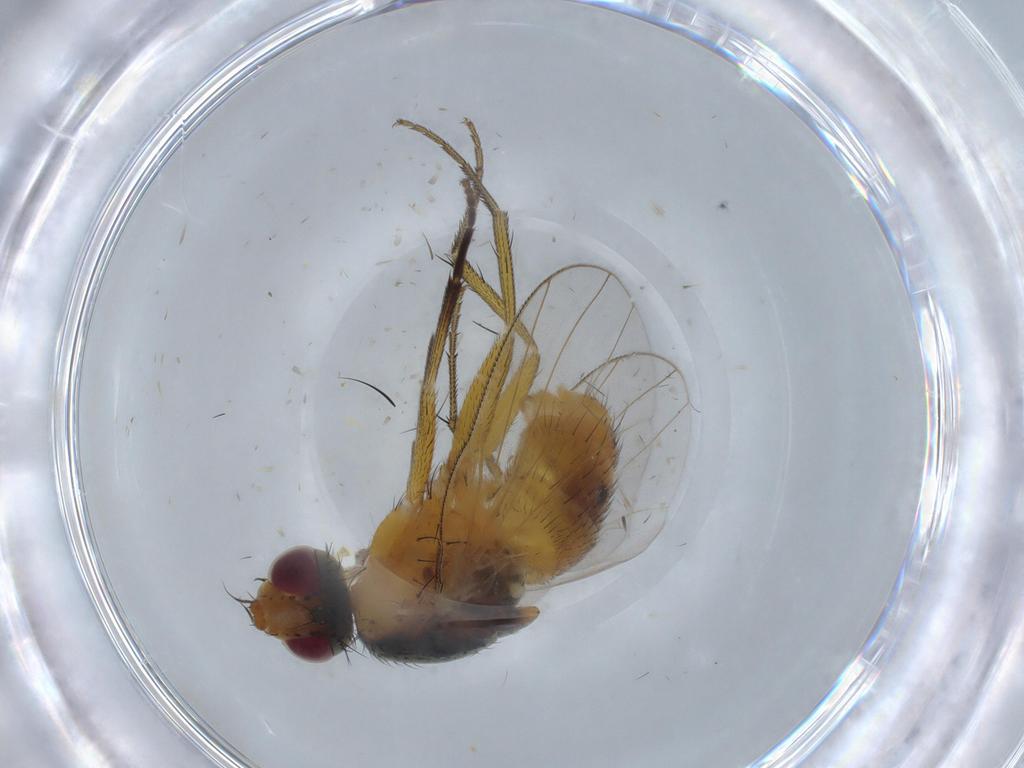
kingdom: Animalia
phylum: Arthropoda
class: Insecta
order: Diptera
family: Muscidae
